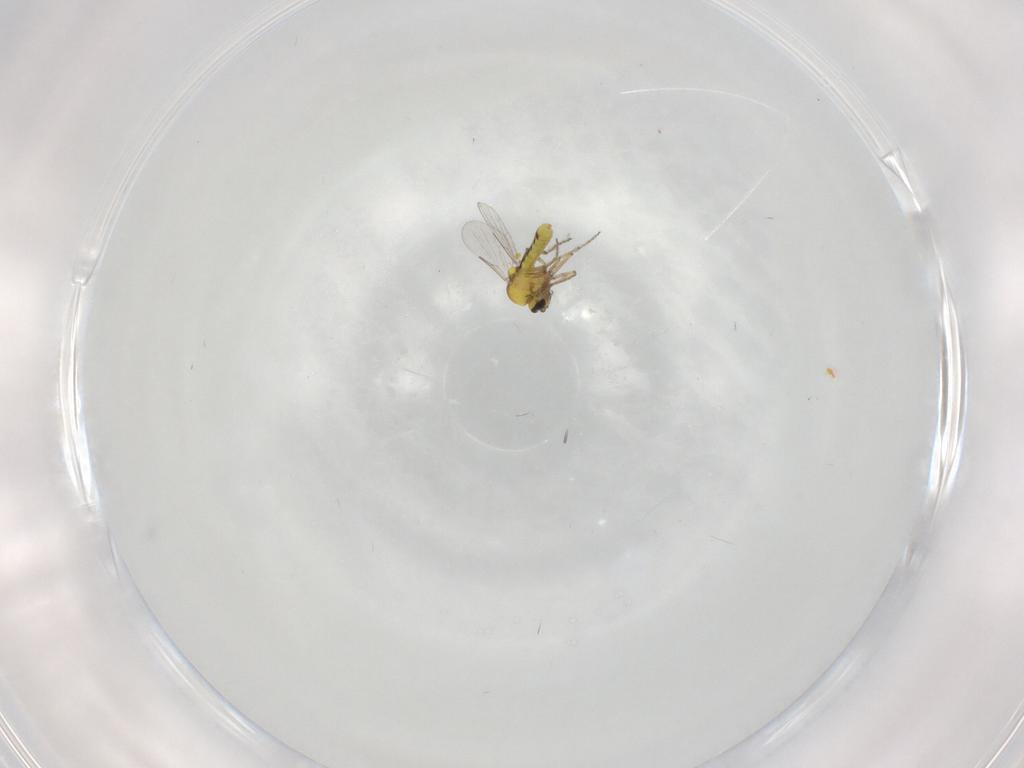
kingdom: Animalia
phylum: Arthropoda
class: Insecta
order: Diptera
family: Ceratopogonidae
